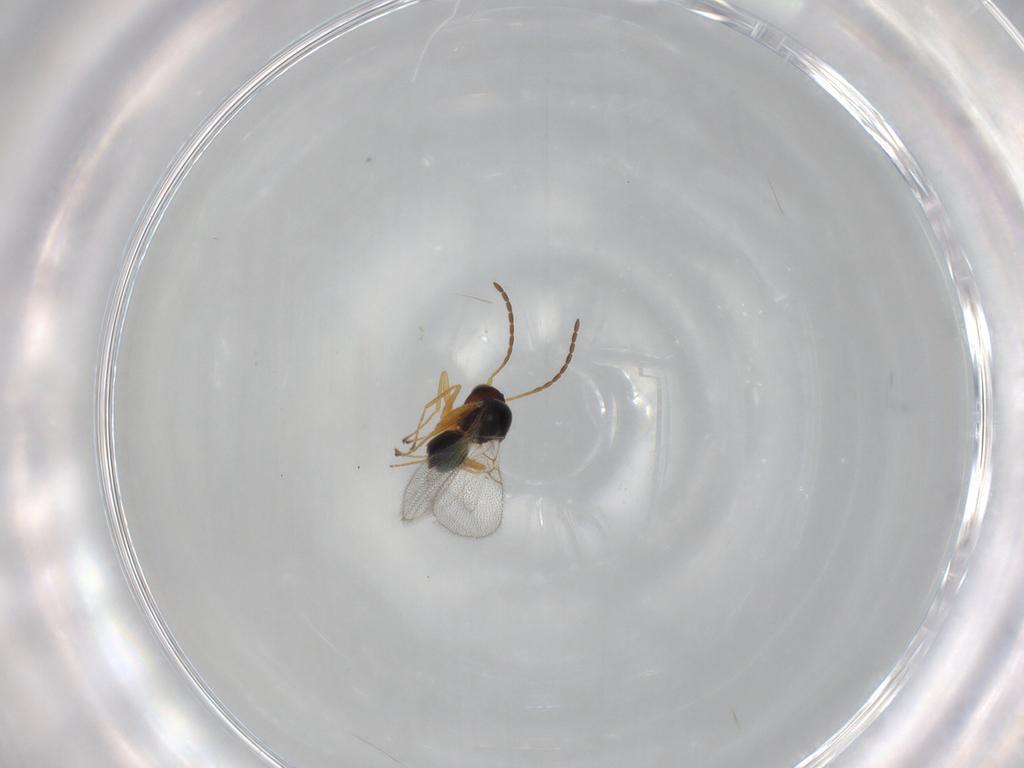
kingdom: Animalia
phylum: Arthropoda
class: Insecta
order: Hymenoptera
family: Figitidae
